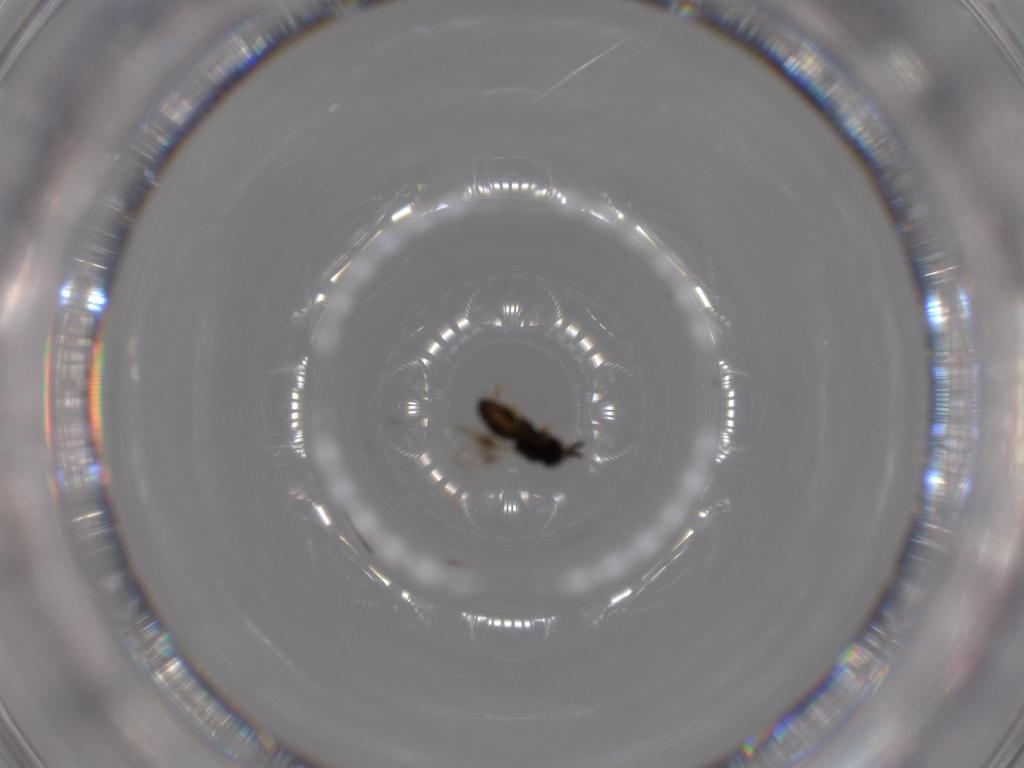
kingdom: Animalia
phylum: Arthropoda
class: Insecta
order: Hymenoptera
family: Scelionidae
